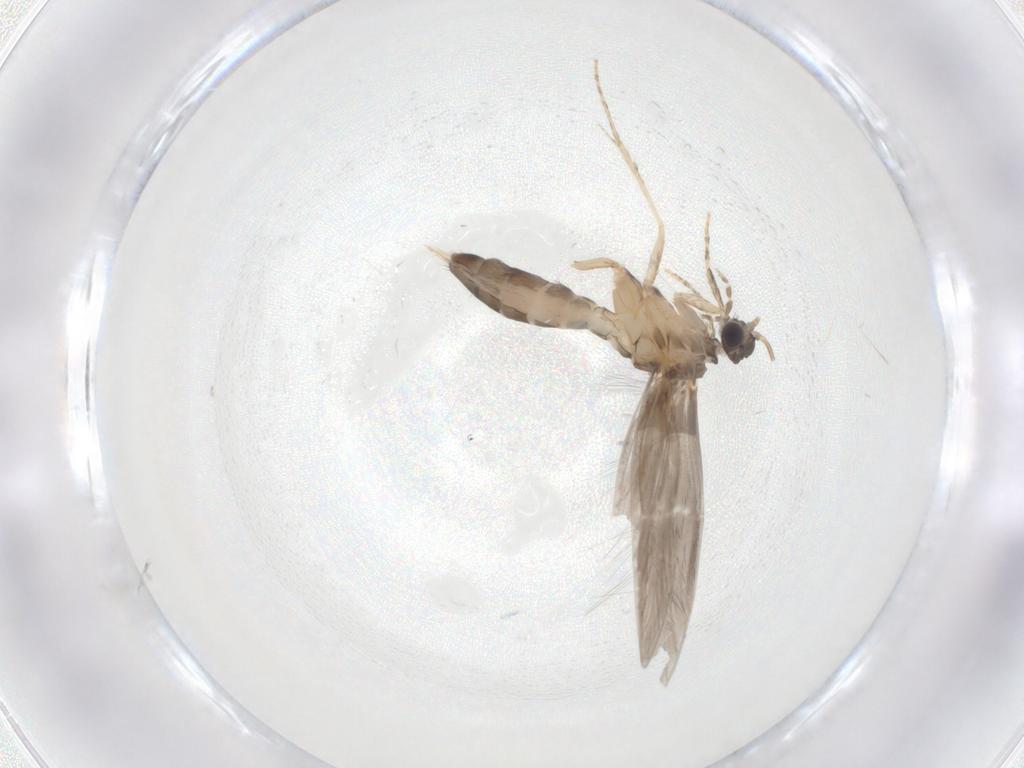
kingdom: Animalia
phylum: Arthropoda
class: Insecta
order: Trichoptera
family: Hydroptilidae
